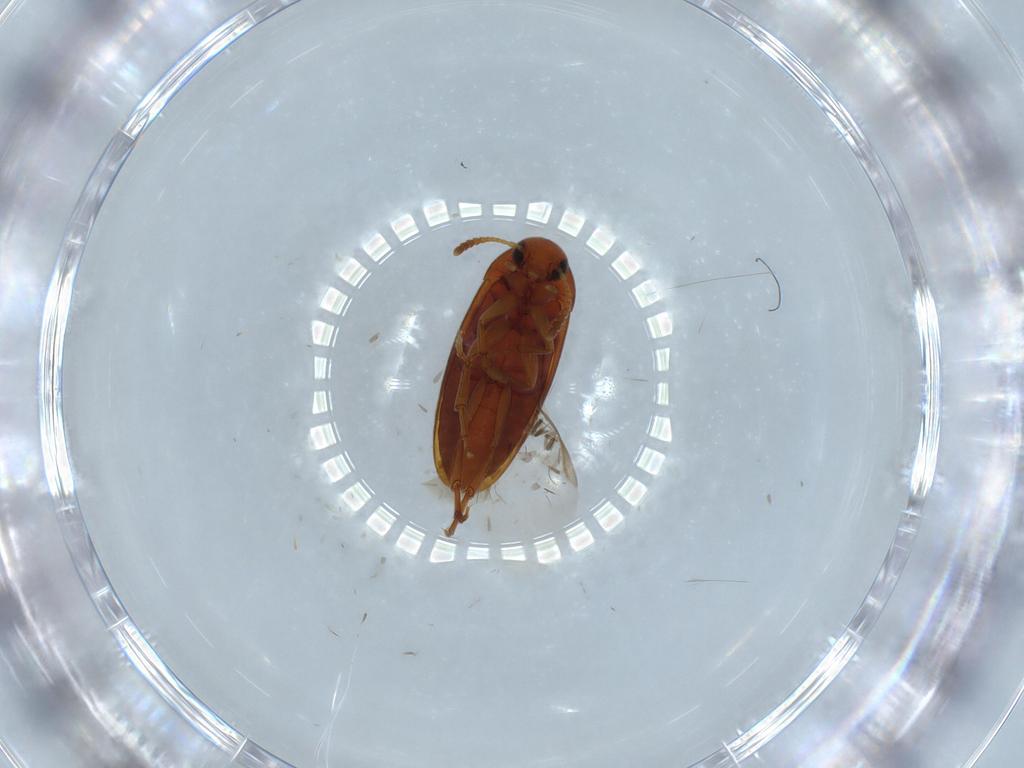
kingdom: Animalia
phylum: Arthropoda
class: Insecta
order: Coleoptera
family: Scraptiidae
